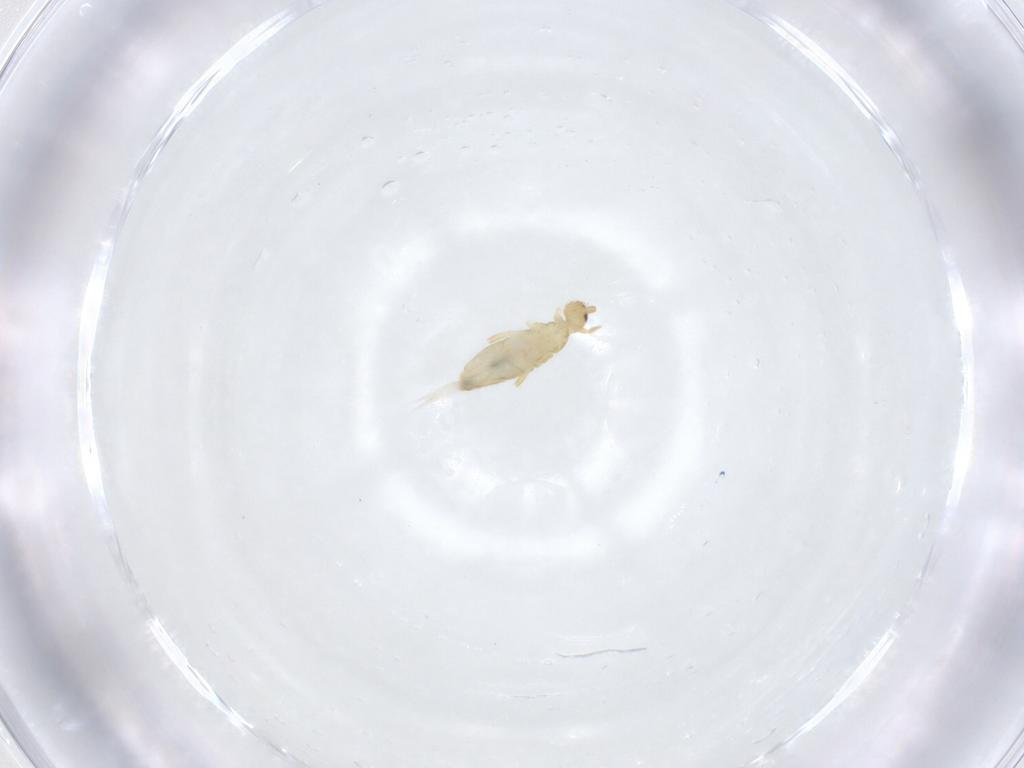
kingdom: Animalia
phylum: Arthropoda
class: Collembola
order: Entomobryomorpha
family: Entomobryidae
